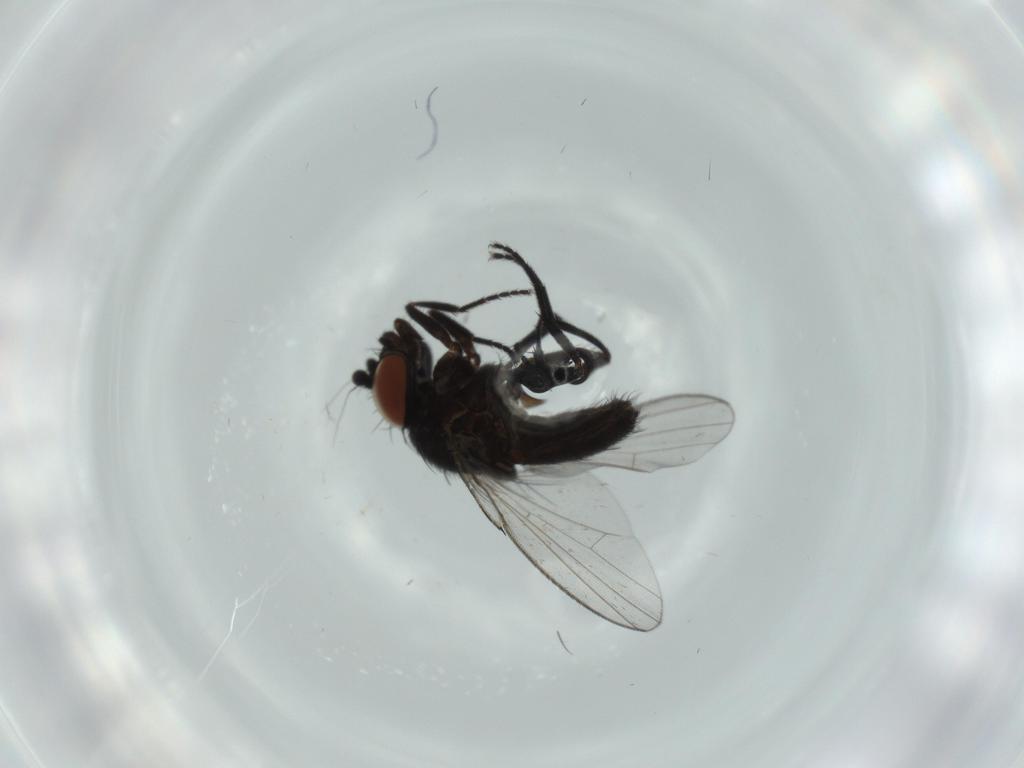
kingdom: Animalia
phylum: Arthropoda
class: Insecta
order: Diptera
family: Milichiidae
